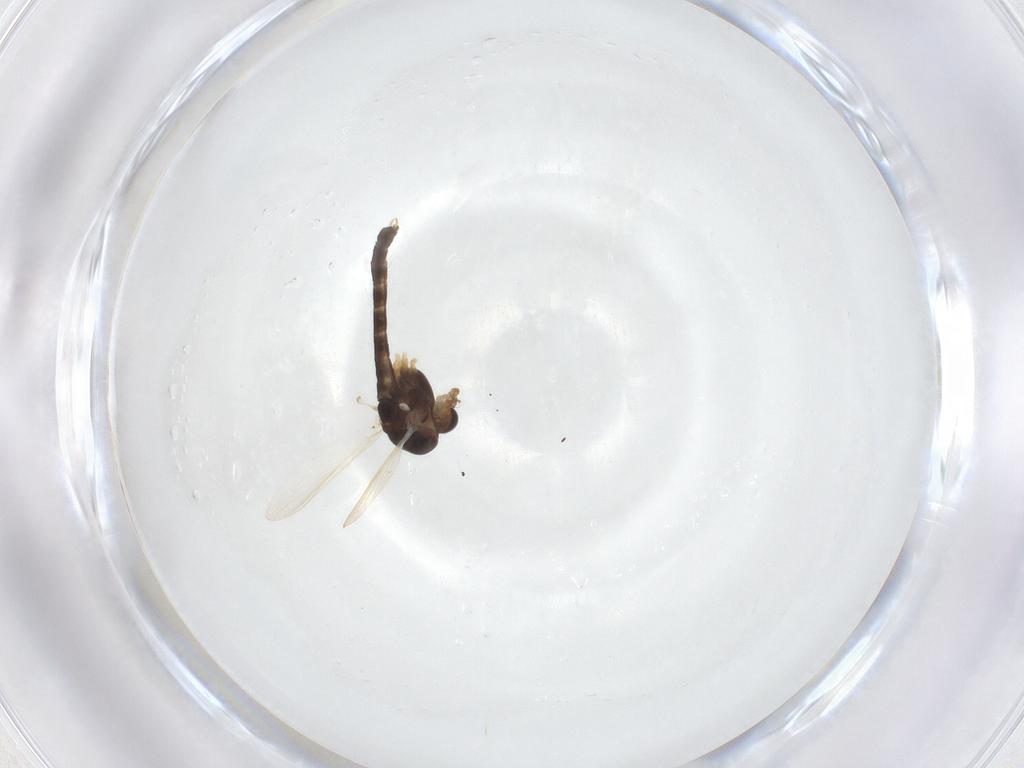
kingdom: Animalia
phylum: Arthropoda
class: Insecta
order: Diptera
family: Chironomidae
